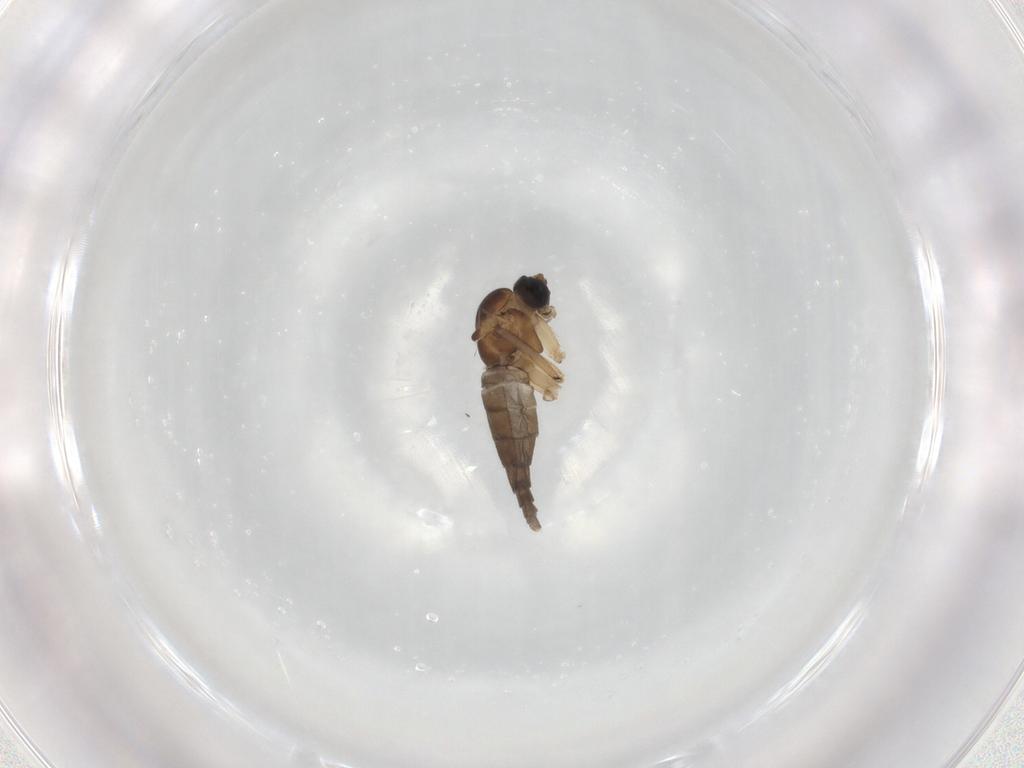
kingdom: Animalia
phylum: Arthropoda
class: Insecta
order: Diptera
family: Sciaridae
